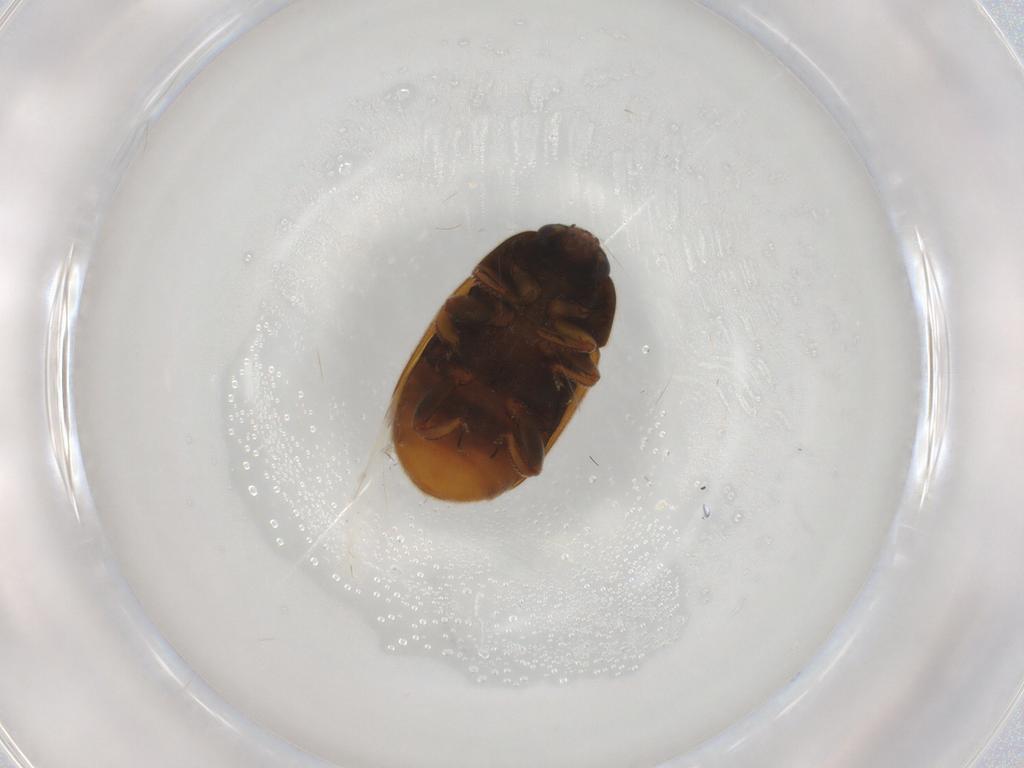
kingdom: Animalia
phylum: Arthropoda
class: Insecta
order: Coleoptera
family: Nitidulidae
